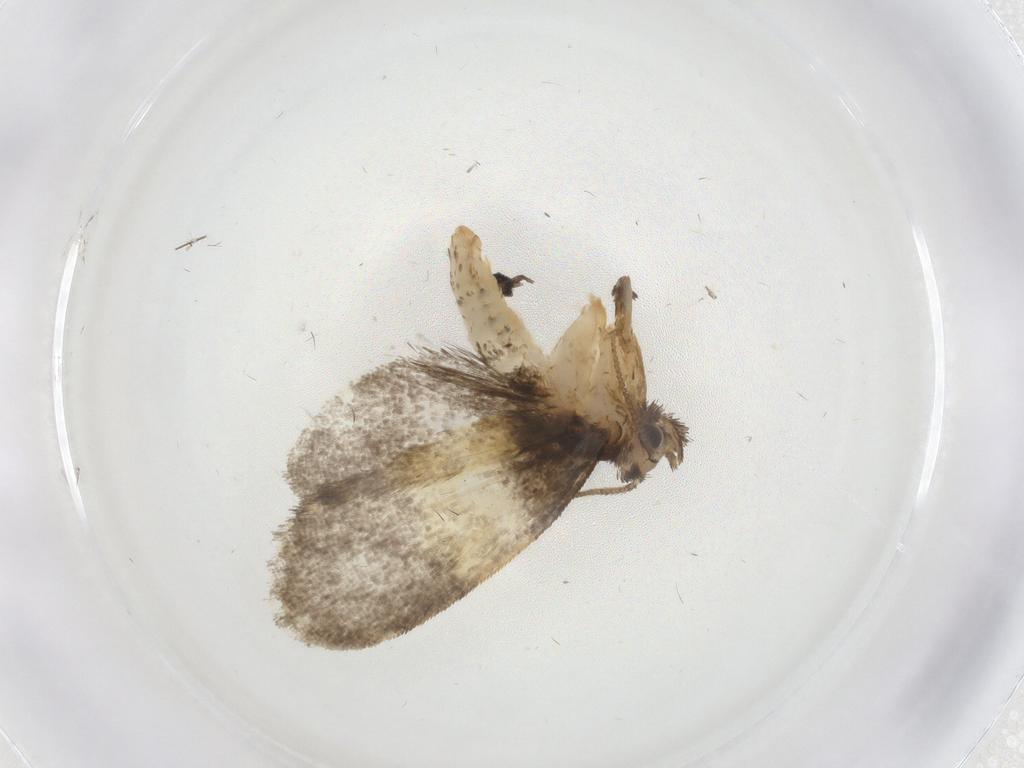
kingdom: Animalia
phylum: Arthropoda
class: Insecta
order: Lepidoptera
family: Psychidae
